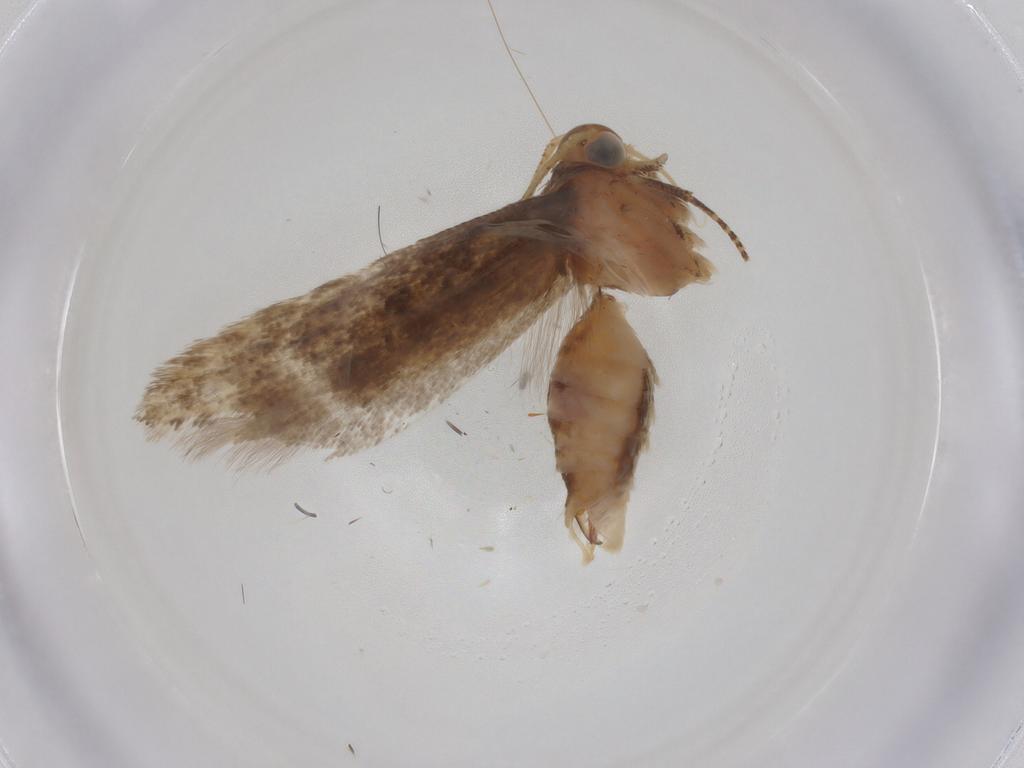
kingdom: Animalia
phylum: Arthropoda
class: Insecta
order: Lepidoptera
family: Gelechiidae
